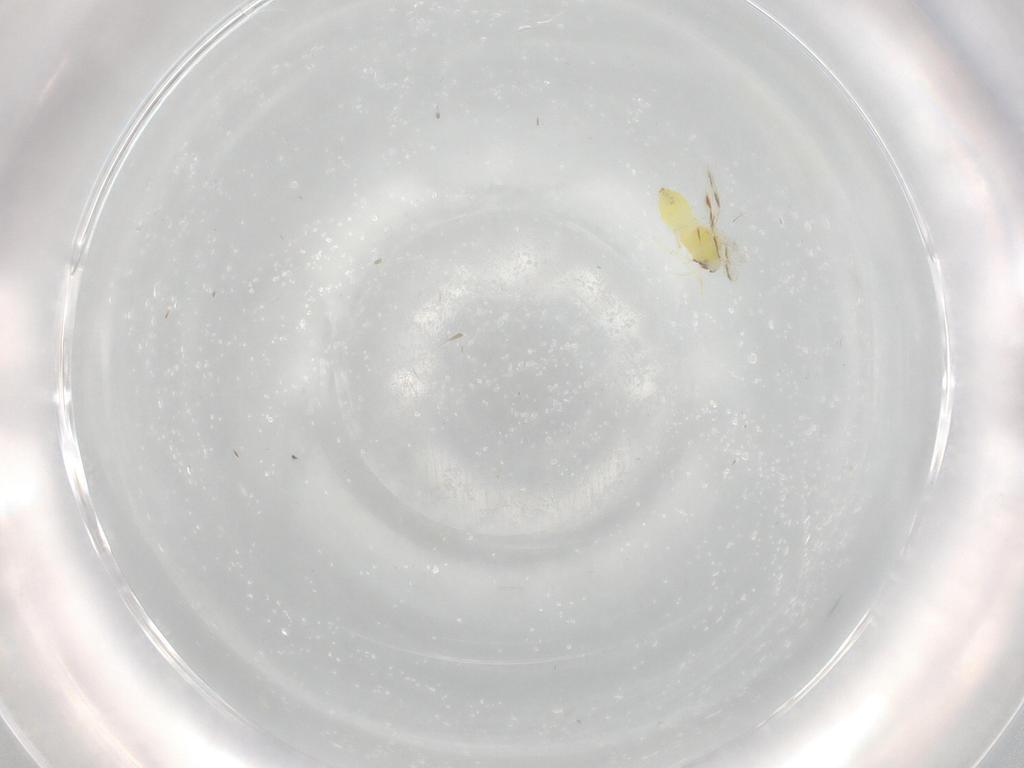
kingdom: Animalia
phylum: Arthropoda
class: Insecta
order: Hemiptera
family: Aleyrodidae
